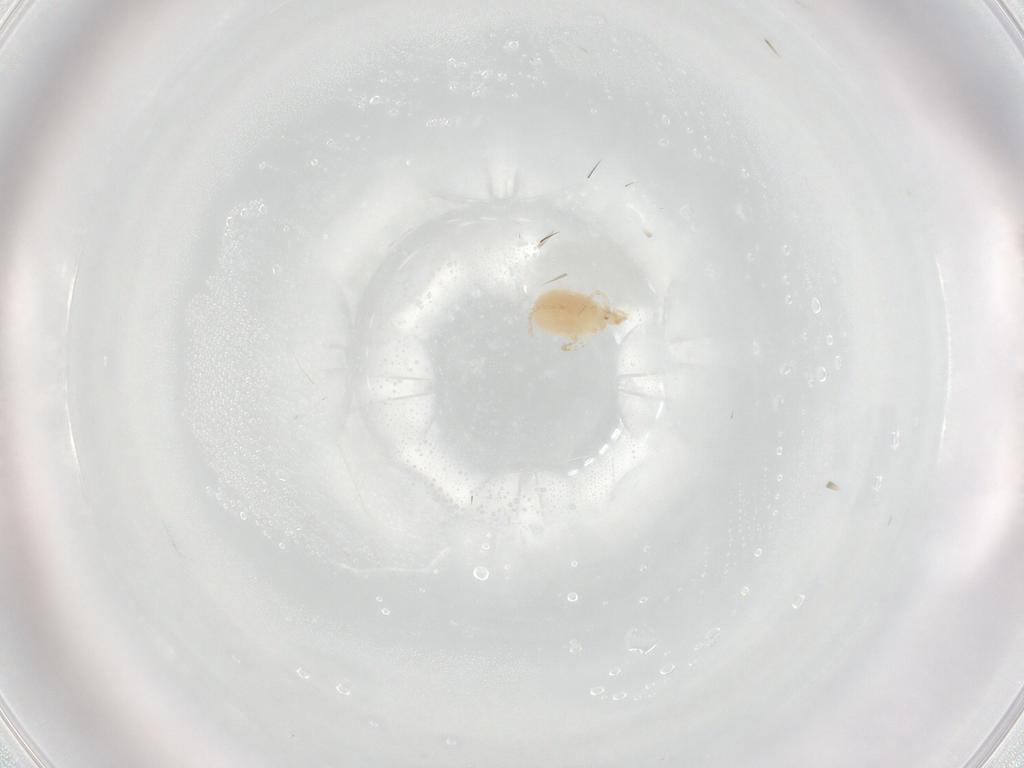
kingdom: Animalia
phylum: Arthropoda
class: Arachnida
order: Trombidiformes
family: Erythraeidae
